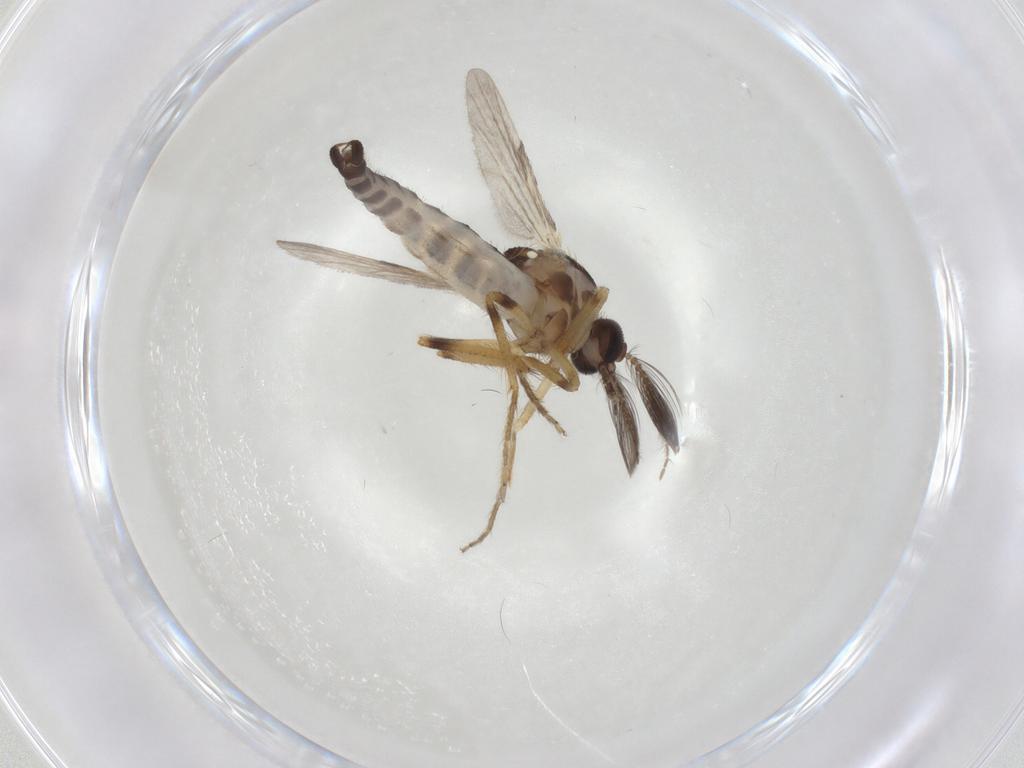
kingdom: Animalia
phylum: Arthropoda
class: Insecta
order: Diptera
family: Ceratopogonidae
